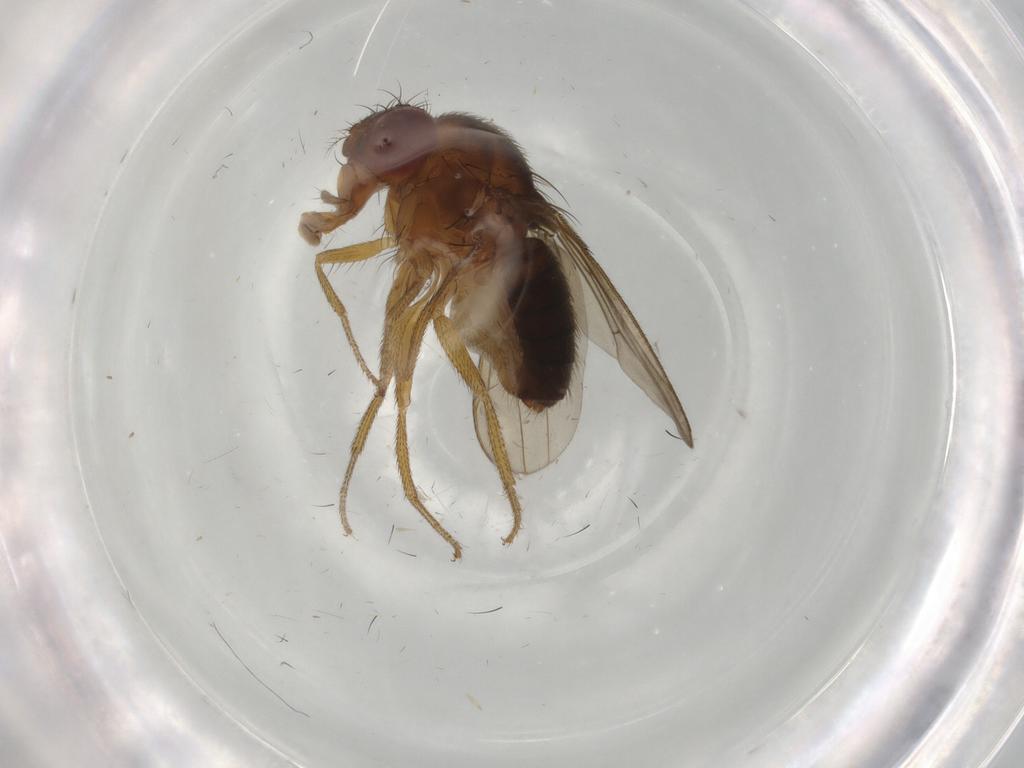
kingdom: Animalia
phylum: Arthropoda
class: Insecta
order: Diptera
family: Drosophilidae
